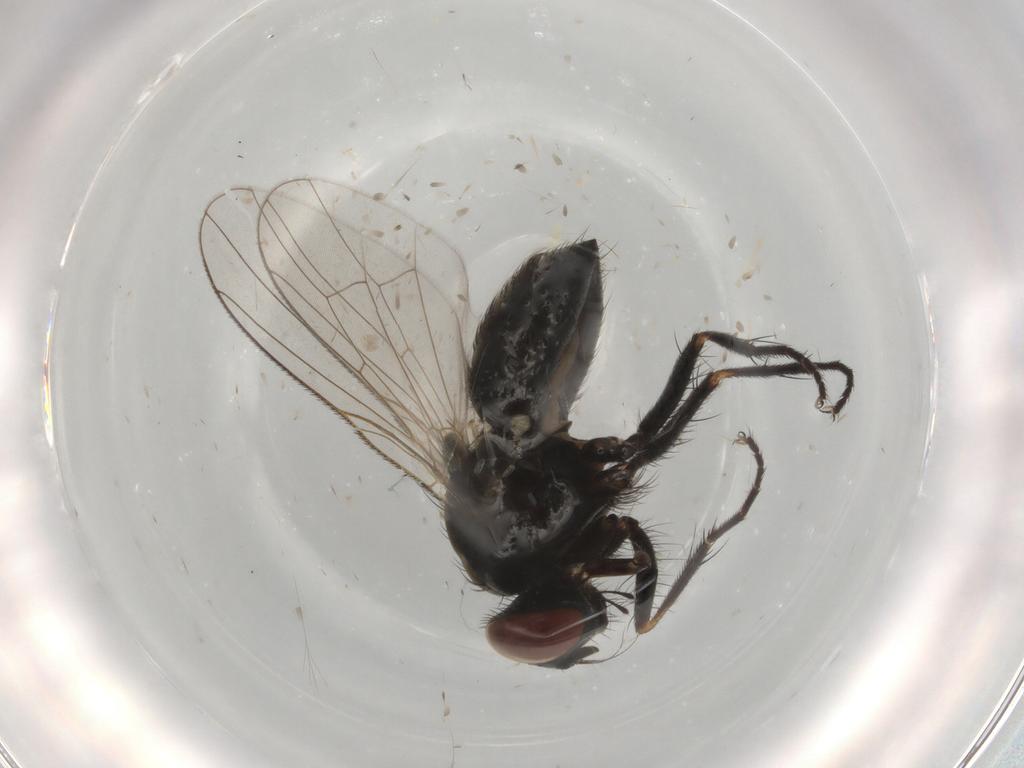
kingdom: Animalia
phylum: Arthropoda
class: Insecta
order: Diptera
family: Muscidae
